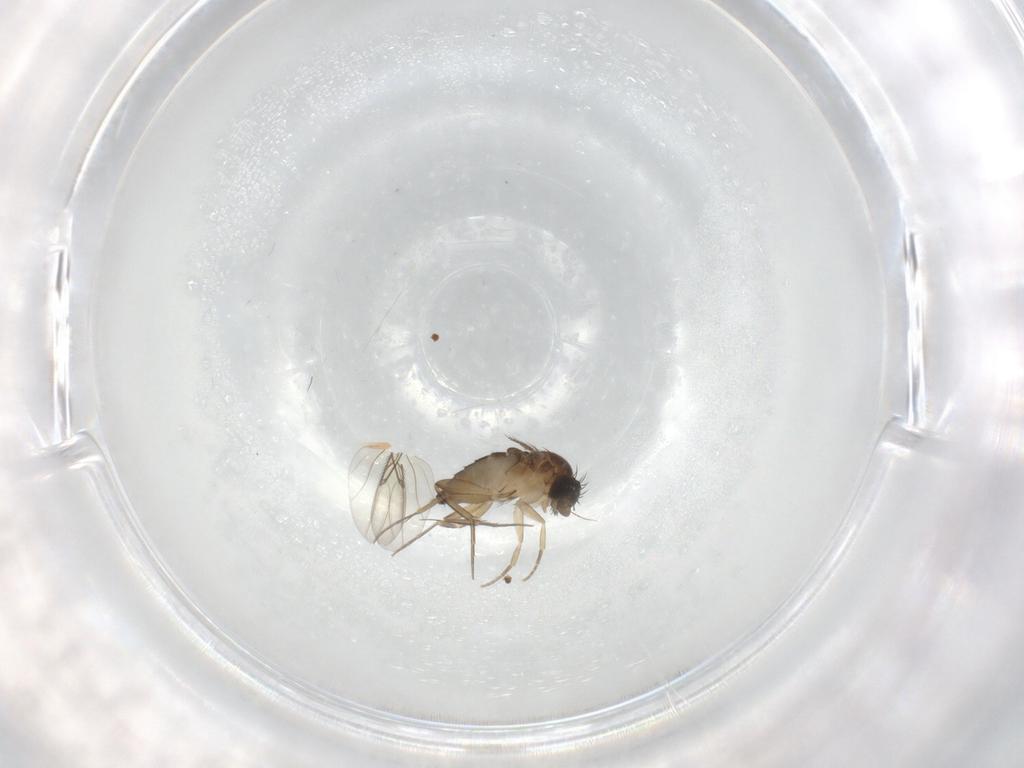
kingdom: Animalia
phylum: Arthropoda
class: Insecta
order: Diptera
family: Phoridae
